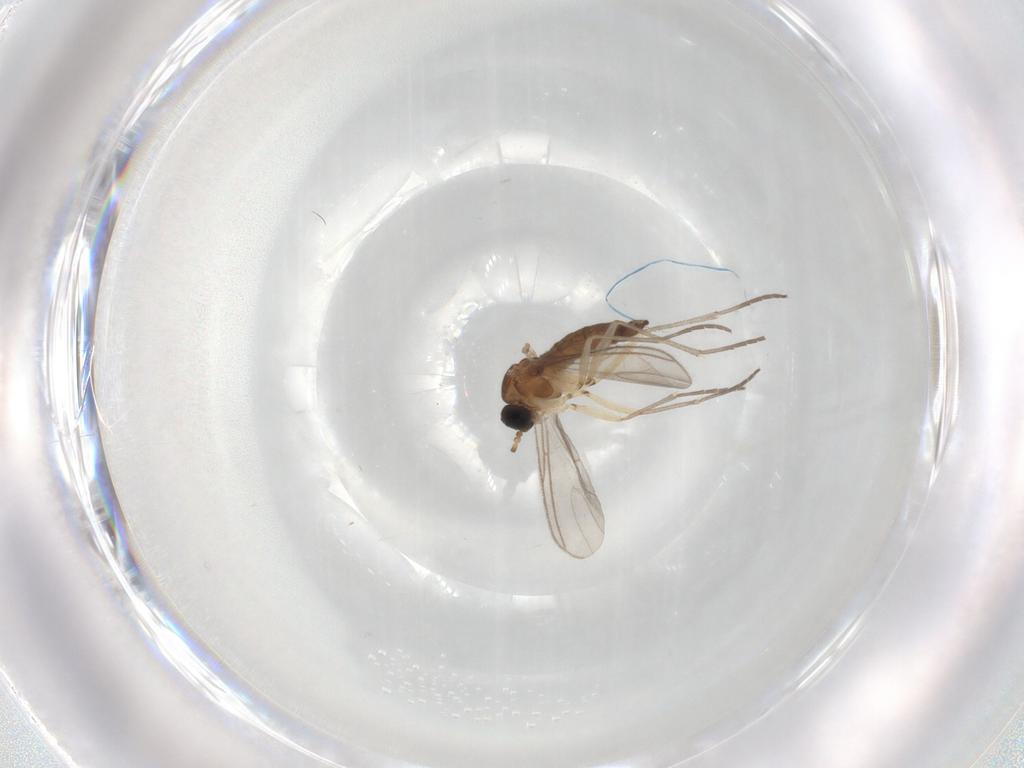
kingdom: Animalia
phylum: Arthropoda
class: Insecta
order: Diptera
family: Sciaridae
